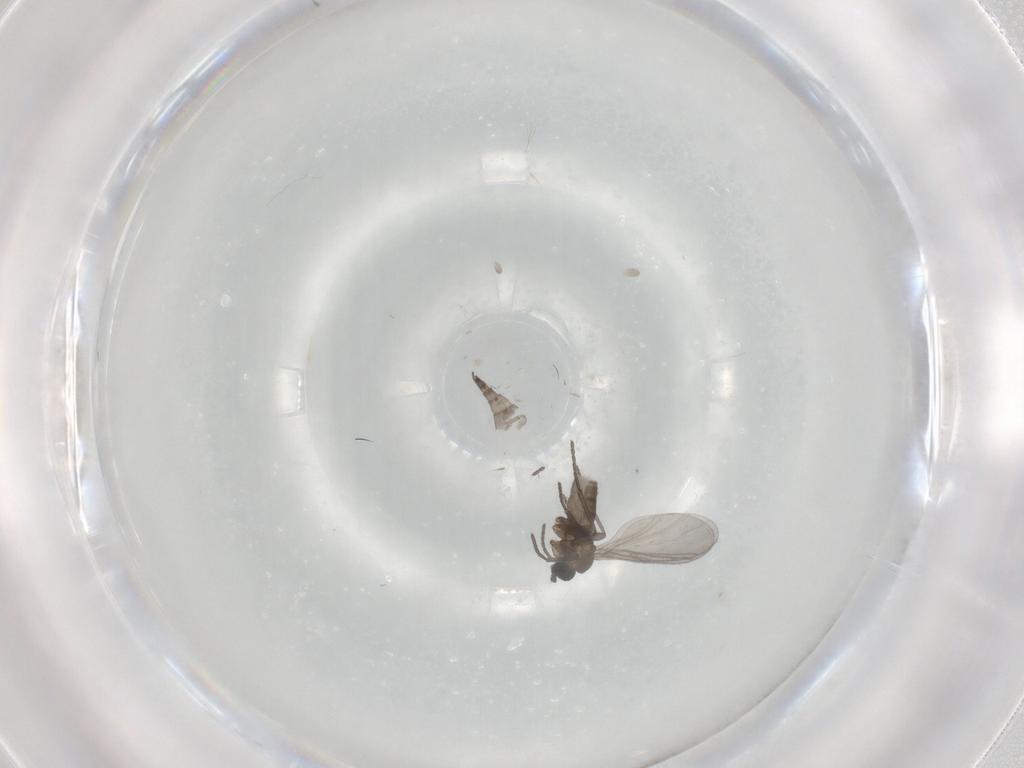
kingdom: Animalia
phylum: Arthropoda
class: Insecta
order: Diptera
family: Sciaridae
